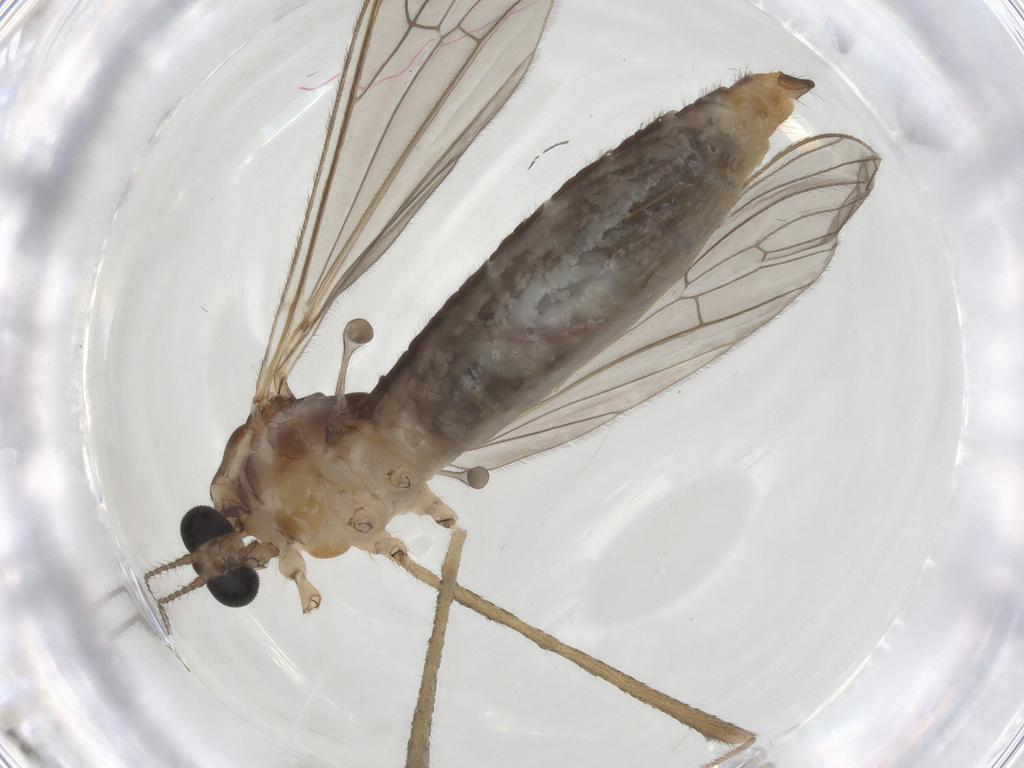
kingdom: Animalia
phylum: Arthropoda
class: Insecta
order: Diptera
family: Limoniidae
